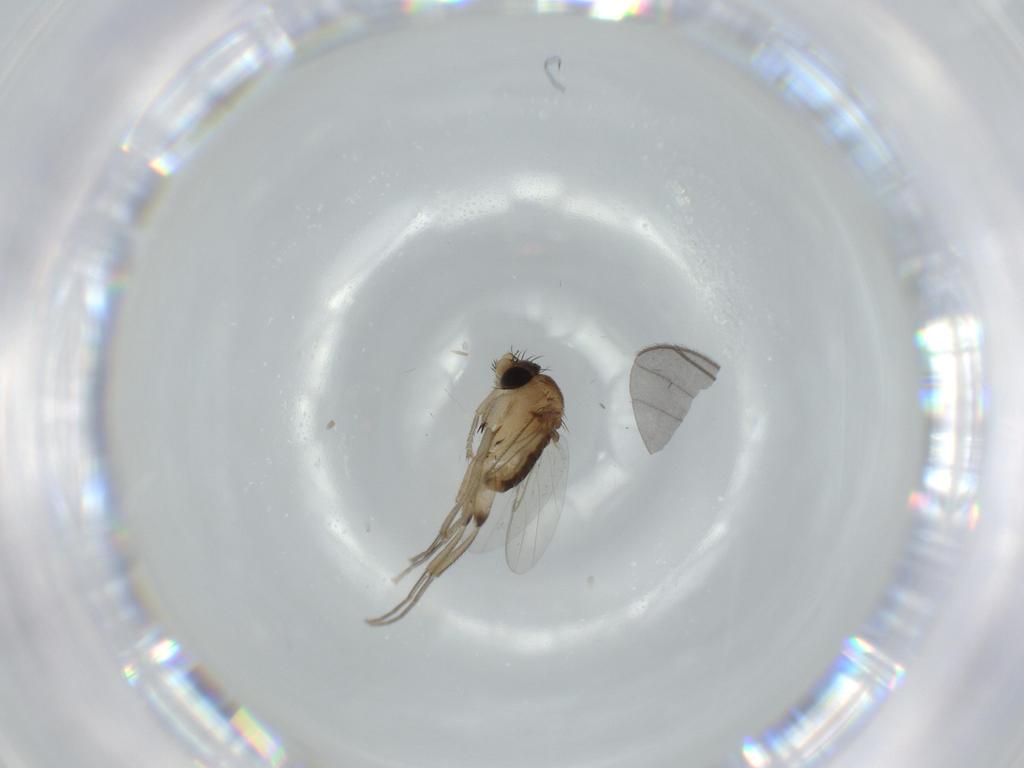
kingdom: Animalia
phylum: Arthropoda
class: Insecta
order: Diptera
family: Phoridae
